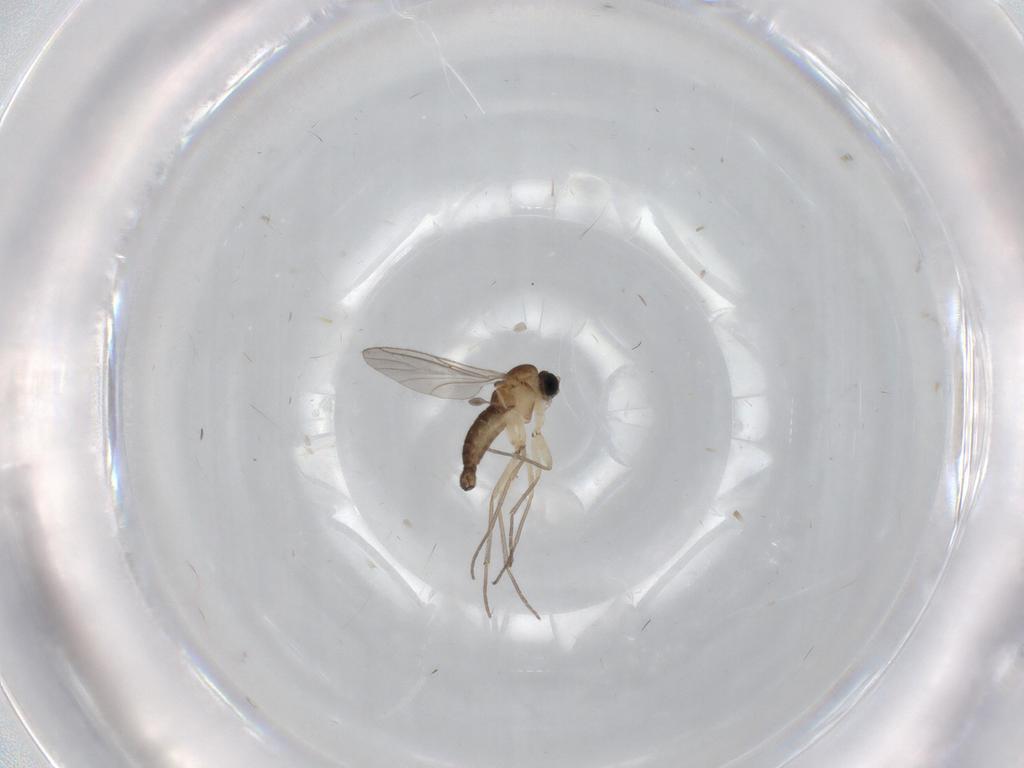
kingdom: Animalia
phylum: Arthropoda
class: Insecta
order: Diptera
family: Sciaridae
